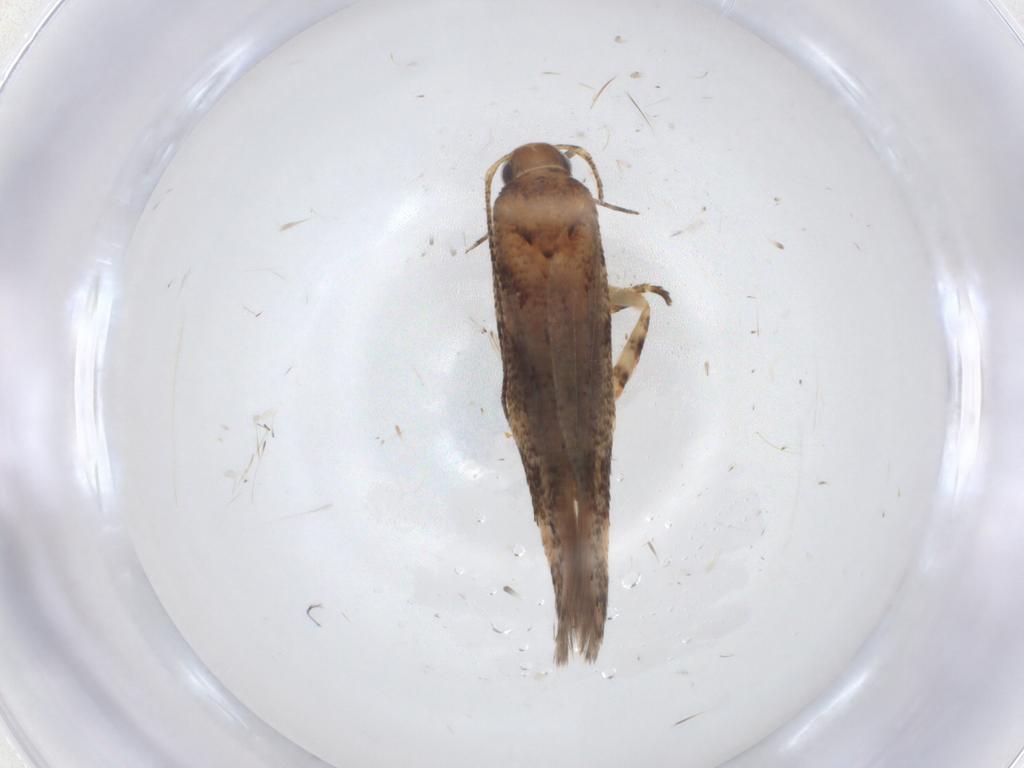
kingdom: Animalia
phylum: Arthropoda
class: Insecta
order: Lepidoptera
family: Gelechiidae
